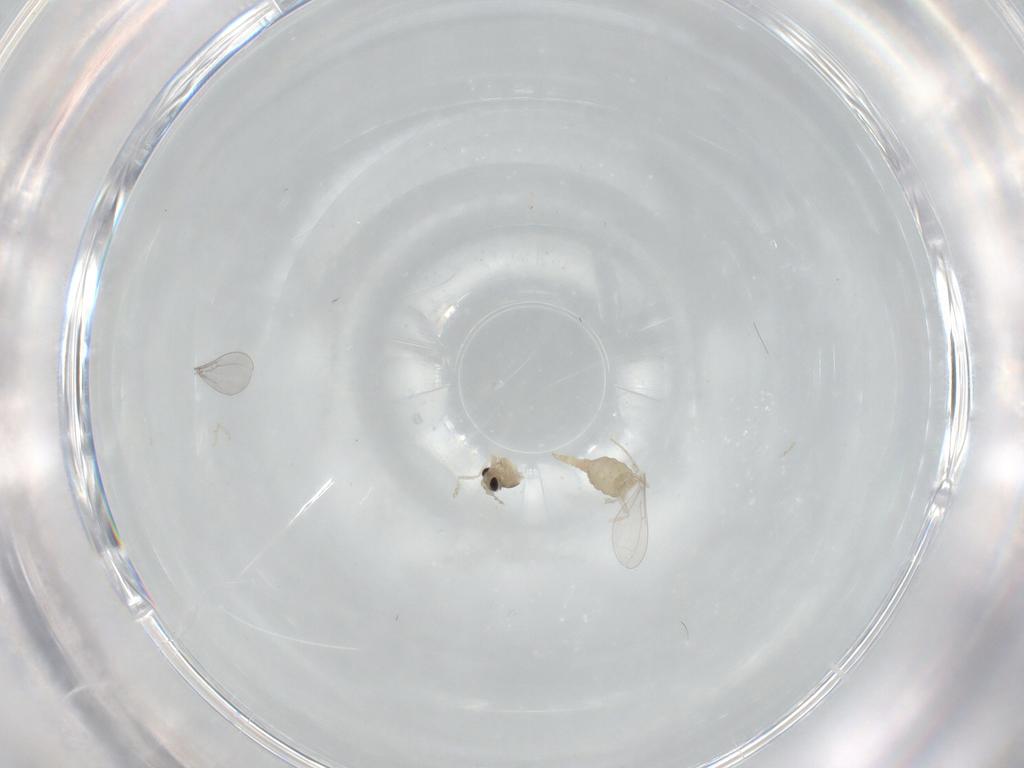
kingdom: Animalia
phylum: Arthropoda
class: Insecta
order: Diptera
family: Cecidomyiidae
